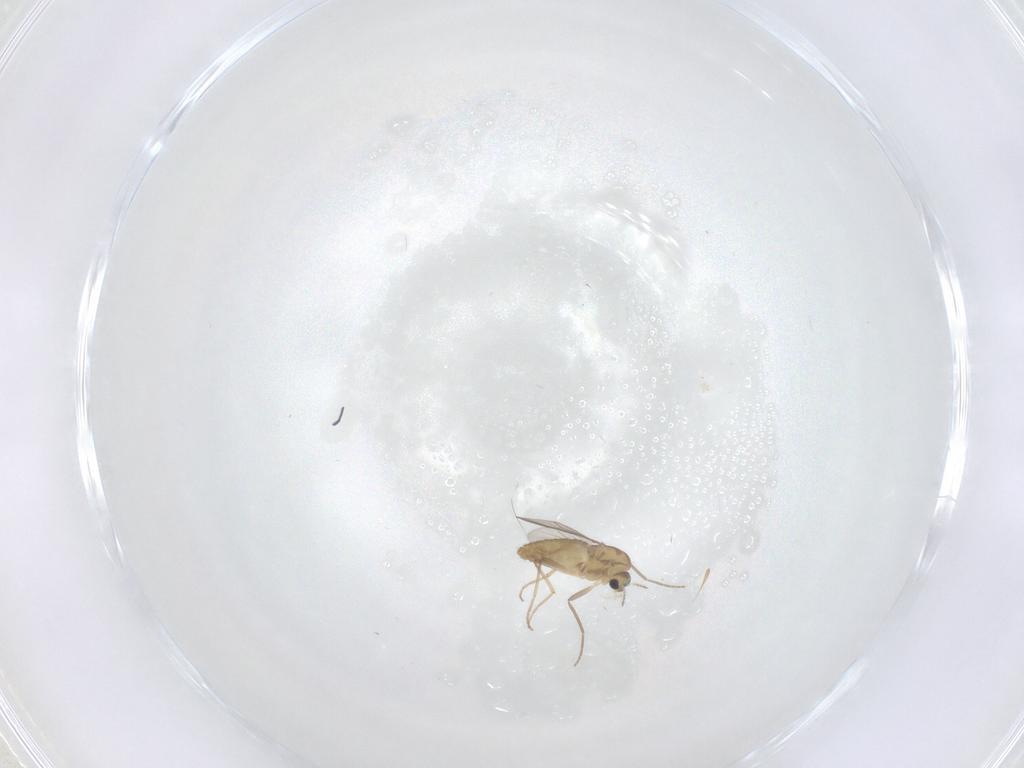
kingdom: Animalia
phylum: Arthropoda
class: Insecta
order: Diptera
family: Chironomidae
